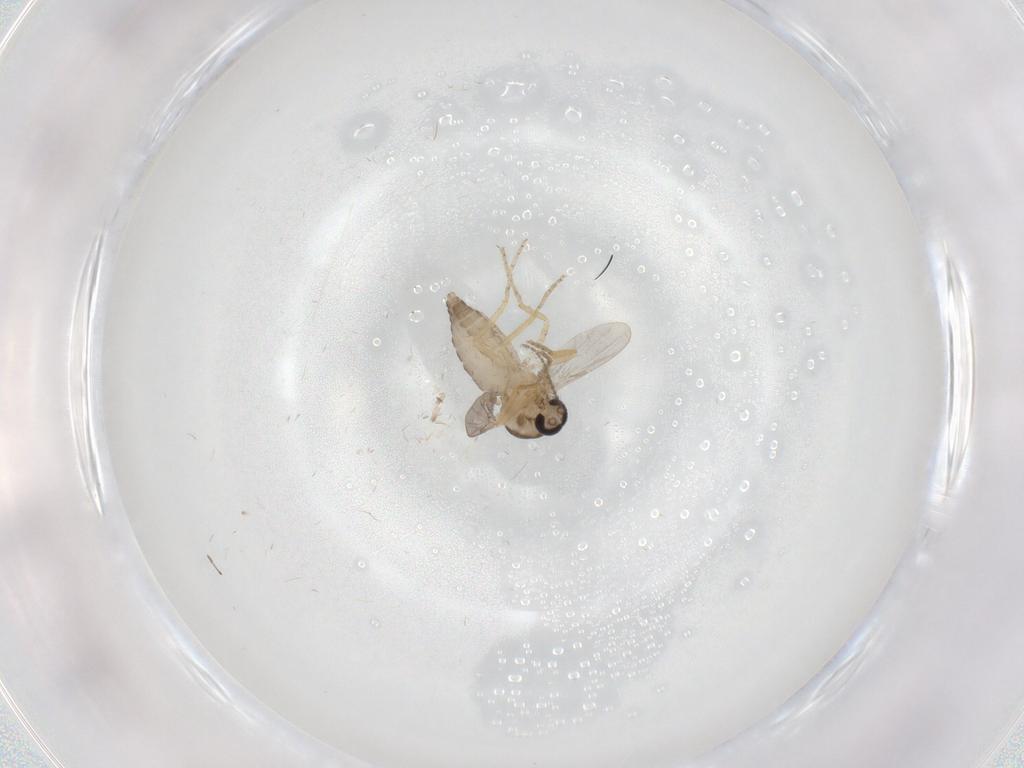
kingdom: Animalia
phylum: Arthropoda
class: Insecta
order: Diptera
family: Ceratopogonidae
